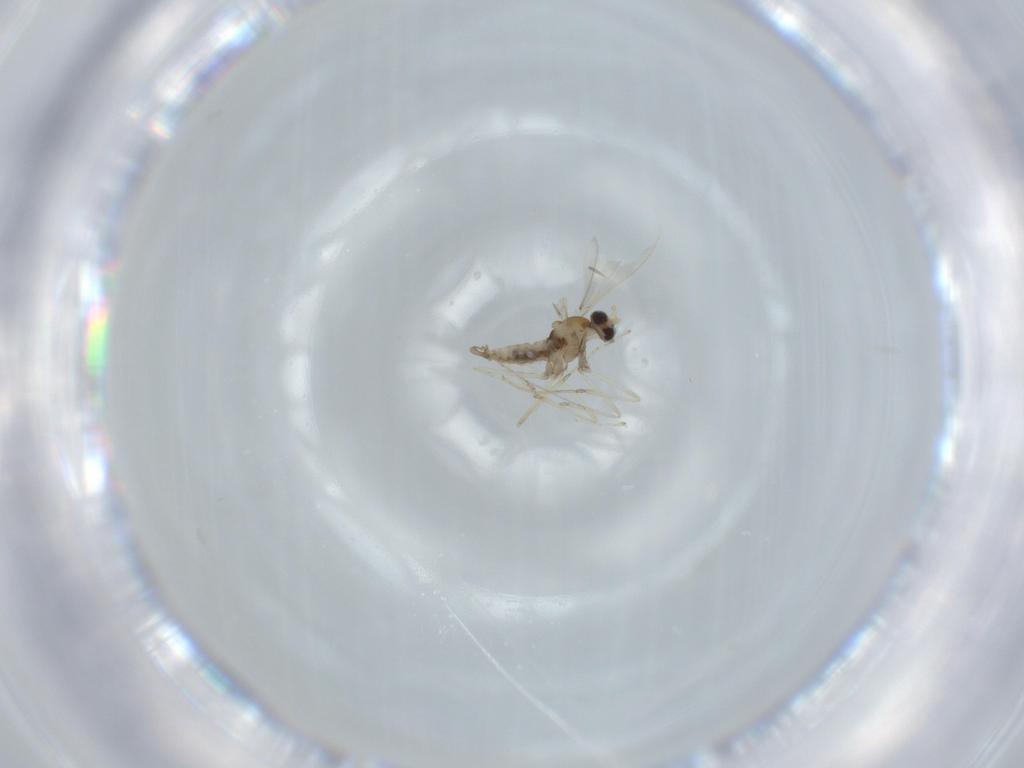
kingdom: Animalia
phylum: Arthropoda
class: Insecta
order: Diptera
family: Cecidomyiidae
